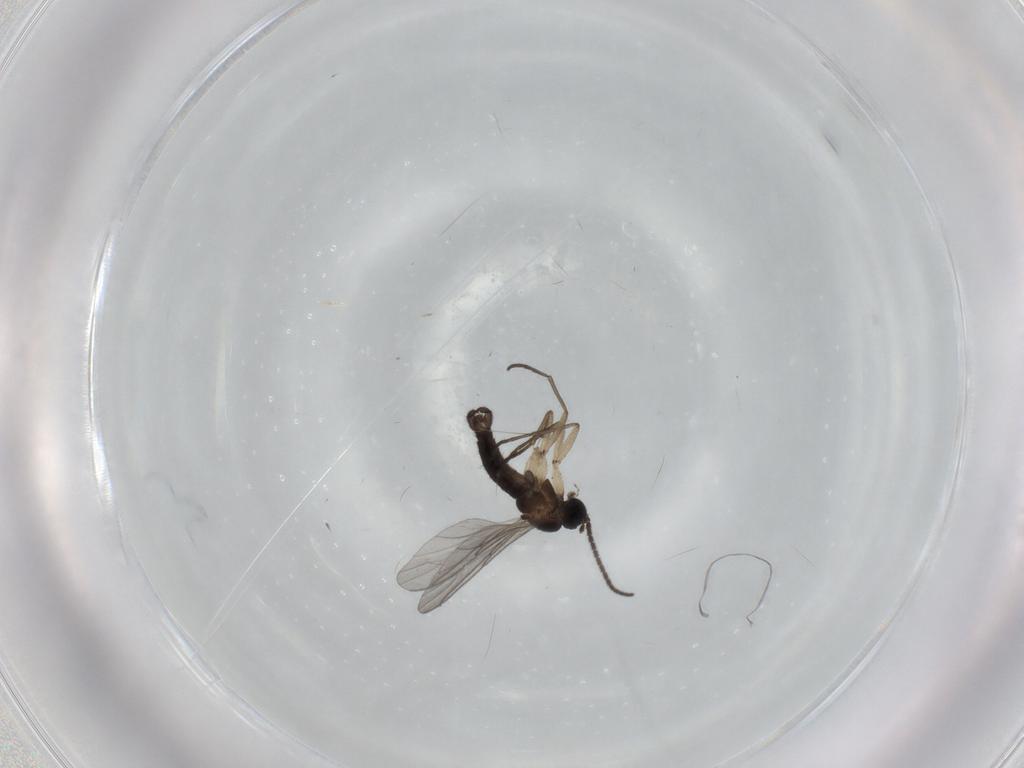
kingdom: Animalia
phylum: Arthropoda
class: Insecta
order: Diptera
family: Sciaridae
